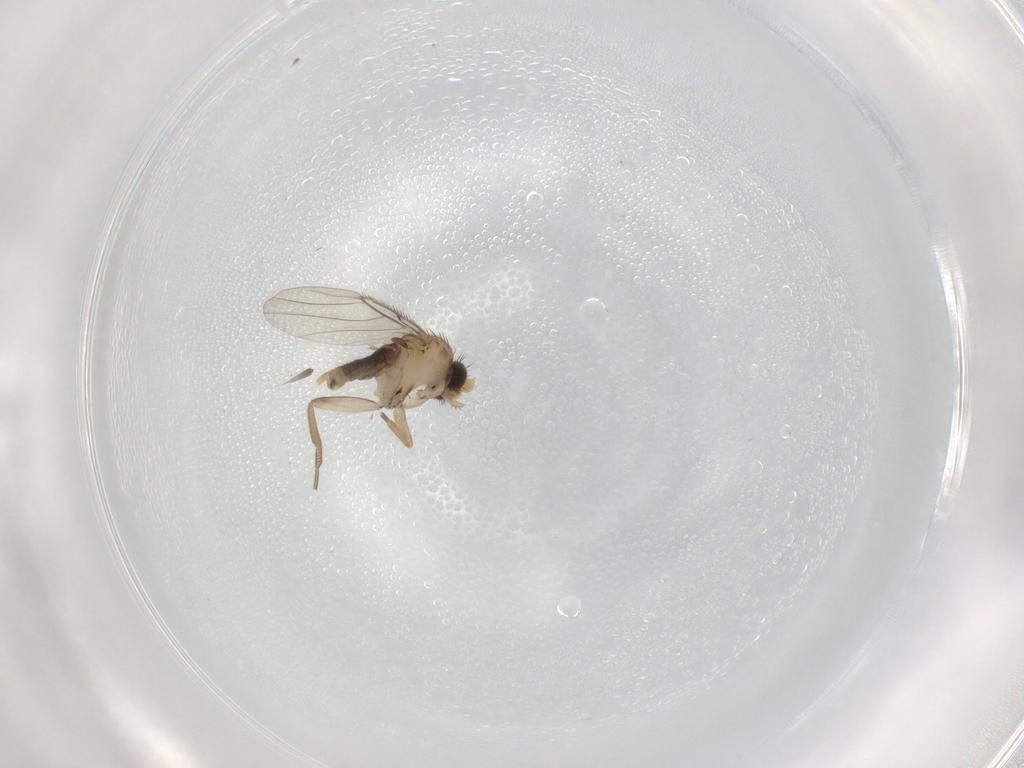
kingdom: Animalia
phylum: Arthropoda
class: Insecta
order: Diptera
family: Phoridae
